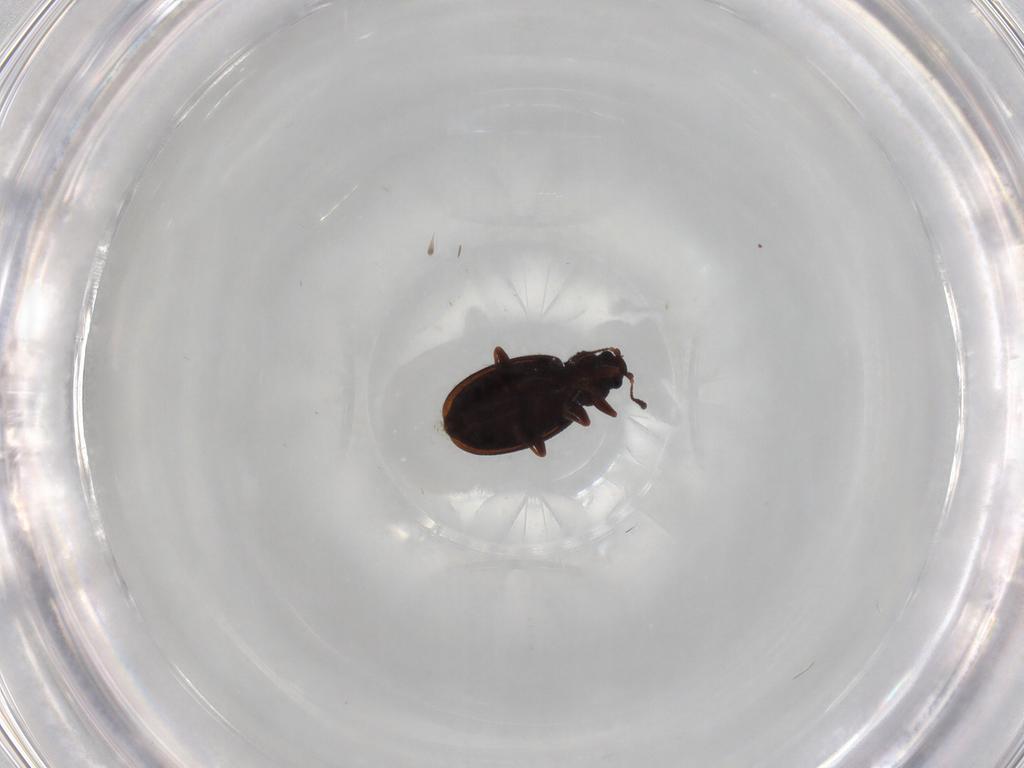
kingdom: Animalia
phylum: Arthropoda
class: Insecta
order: Coleoptera
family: Latridiidae
